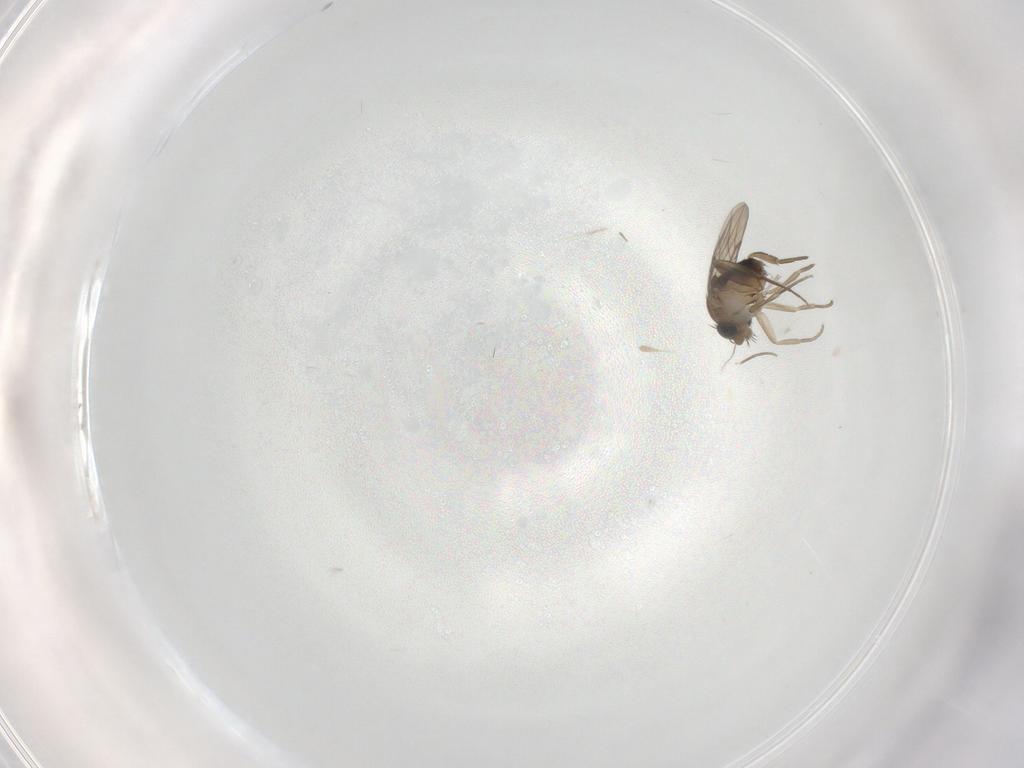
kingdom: Animalia
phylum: Arthropoda
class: Insecta
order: Diptera
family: Phoridae
